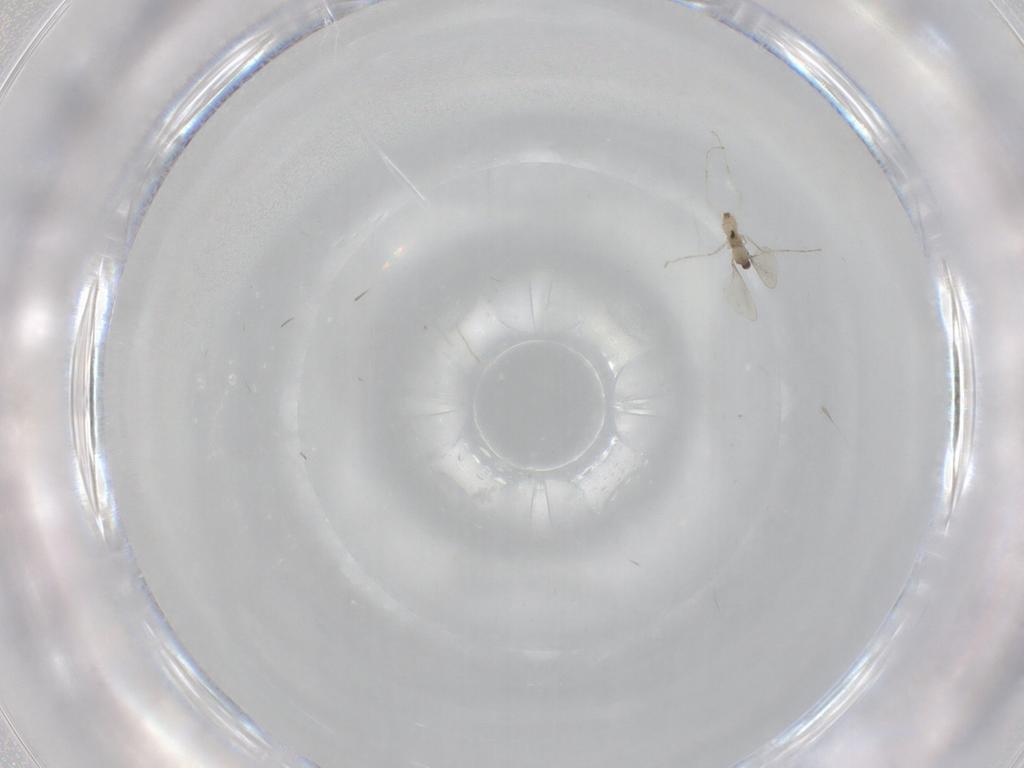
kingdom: Animalia
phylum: Arthropoda
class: Insecta
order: Diptera
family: Cecidomyiidae
